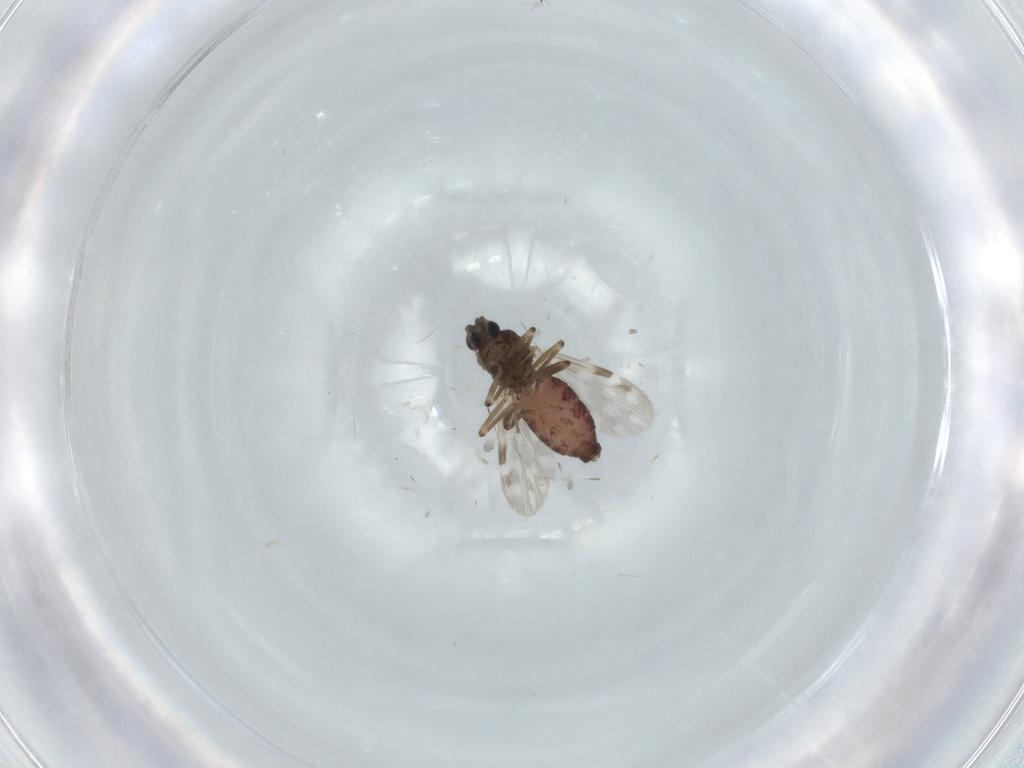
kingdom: Animalia
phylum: Arthropoda
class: Insecta
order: Diptera
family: Ceratopogonidae
